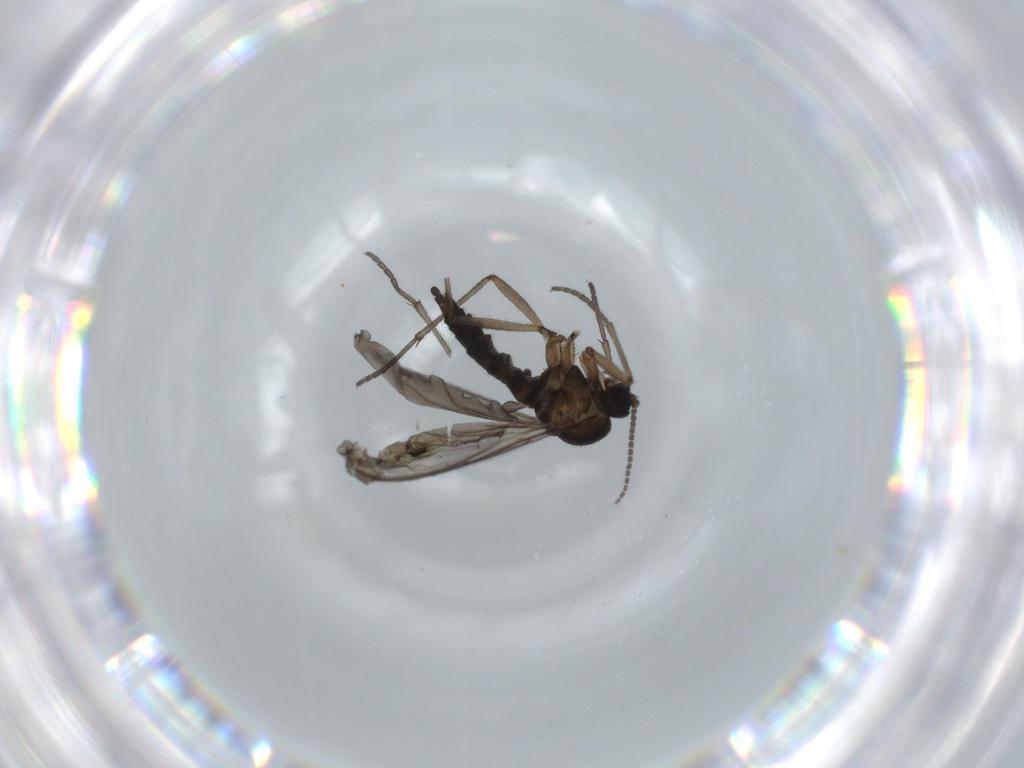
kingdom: Animalia
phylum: Arthropoda
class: Insecta
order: Diptera
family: Sciaridae
